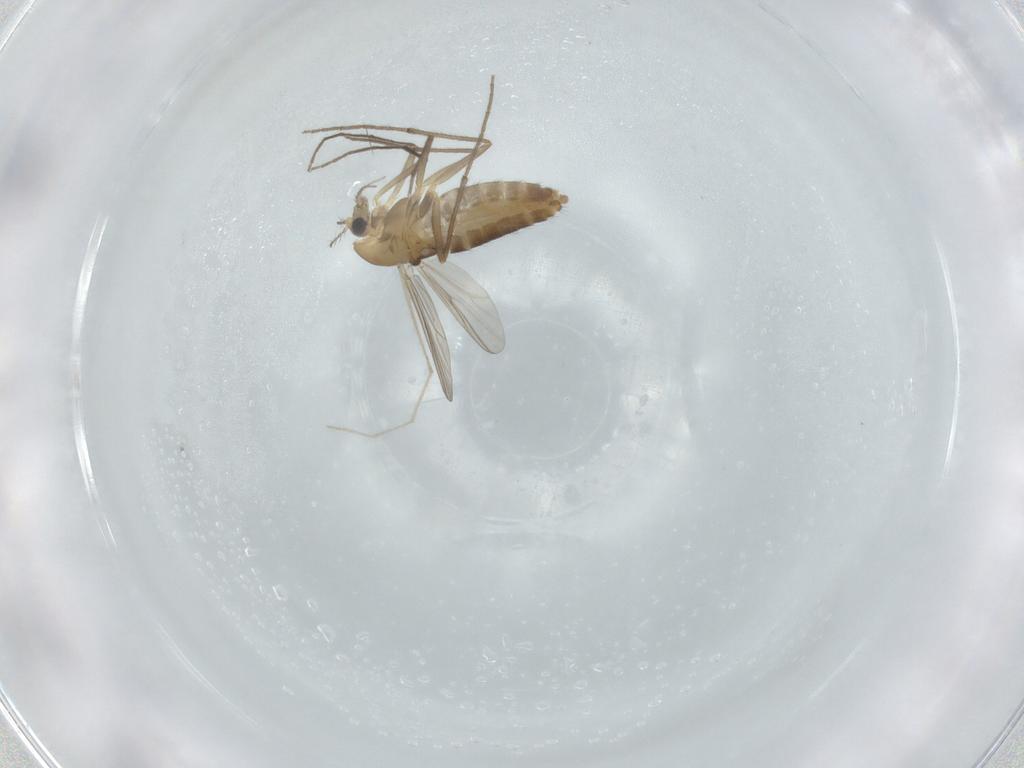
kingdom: Animalia
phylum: Arthropoda
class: Insecta
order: Diptera
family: Chironomidae
